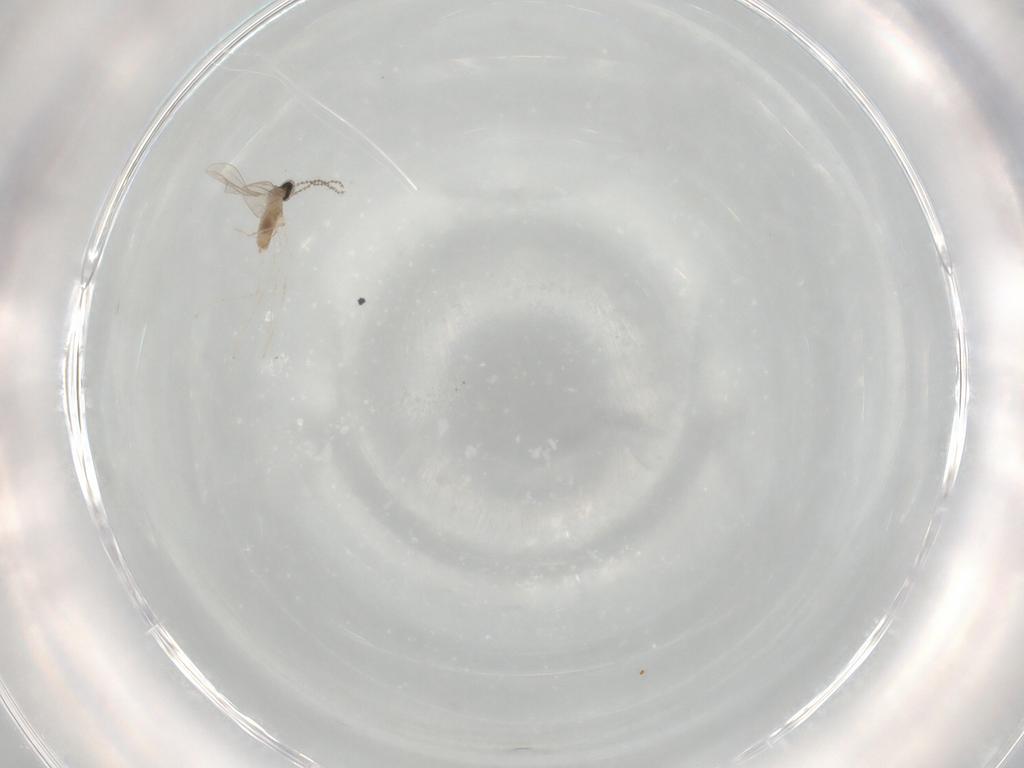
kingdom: Animalia
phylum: Arthropoda
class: Insecta
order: Diptera
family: Cecidomyiidae
